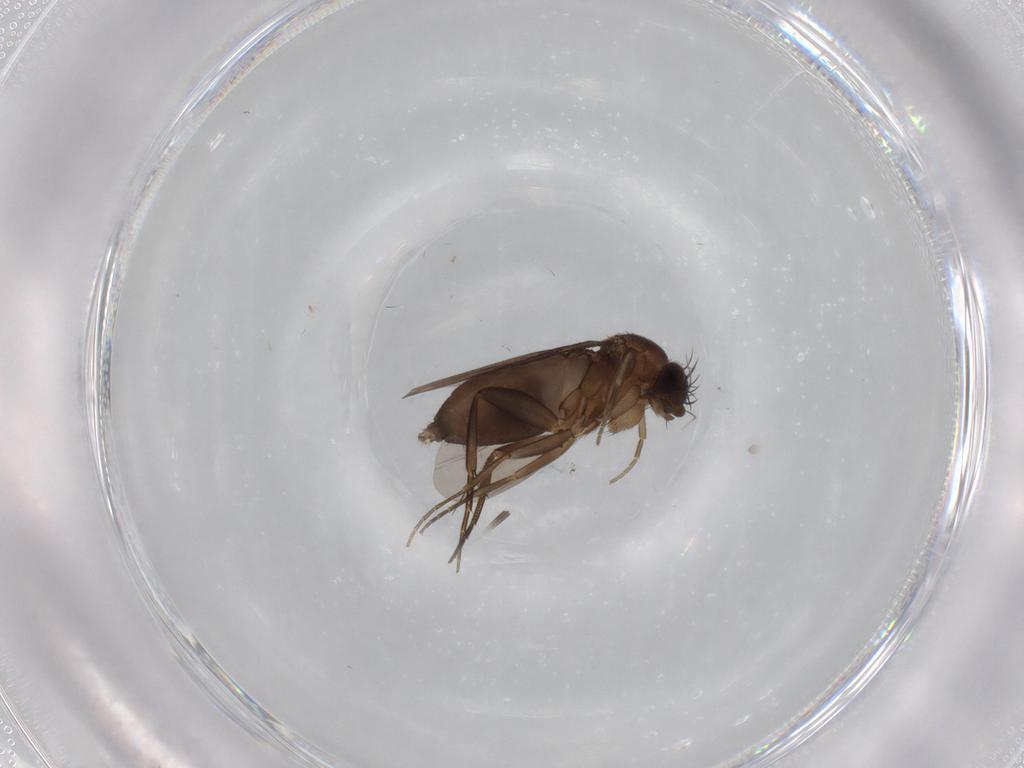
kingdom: Animalia
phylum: Arthropoda
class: Insecta
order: Diptera
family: Phoridae
